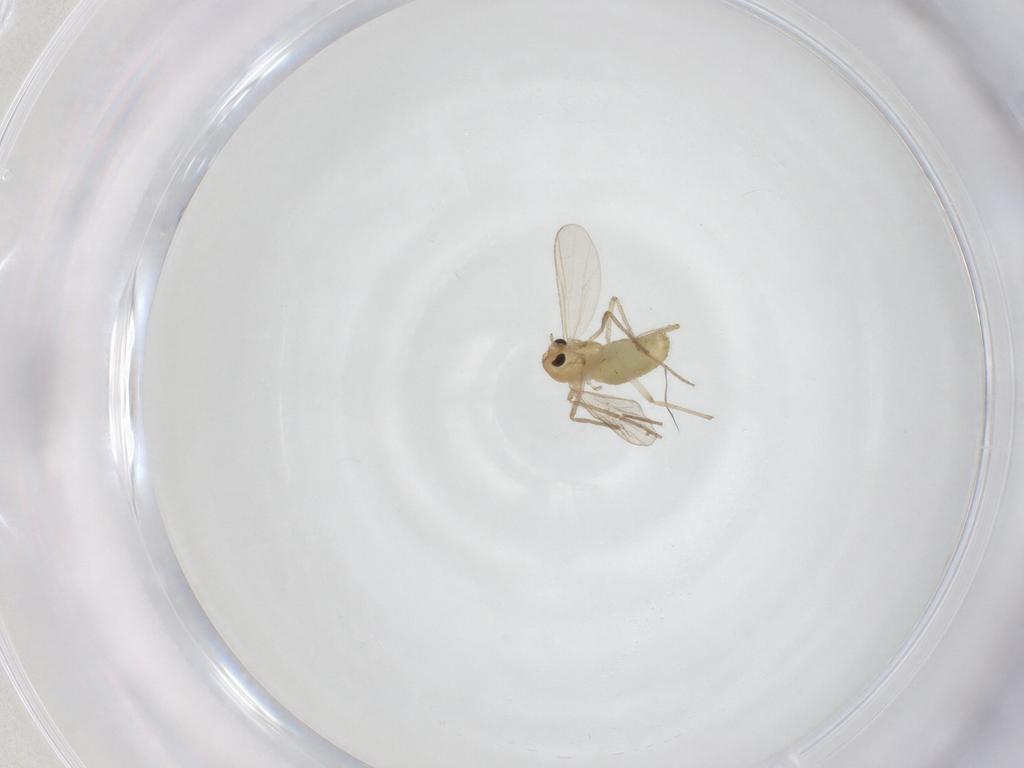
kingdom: Animalia
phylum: Arthropoda
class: Insecta
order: Diptera
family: Chironomidae
